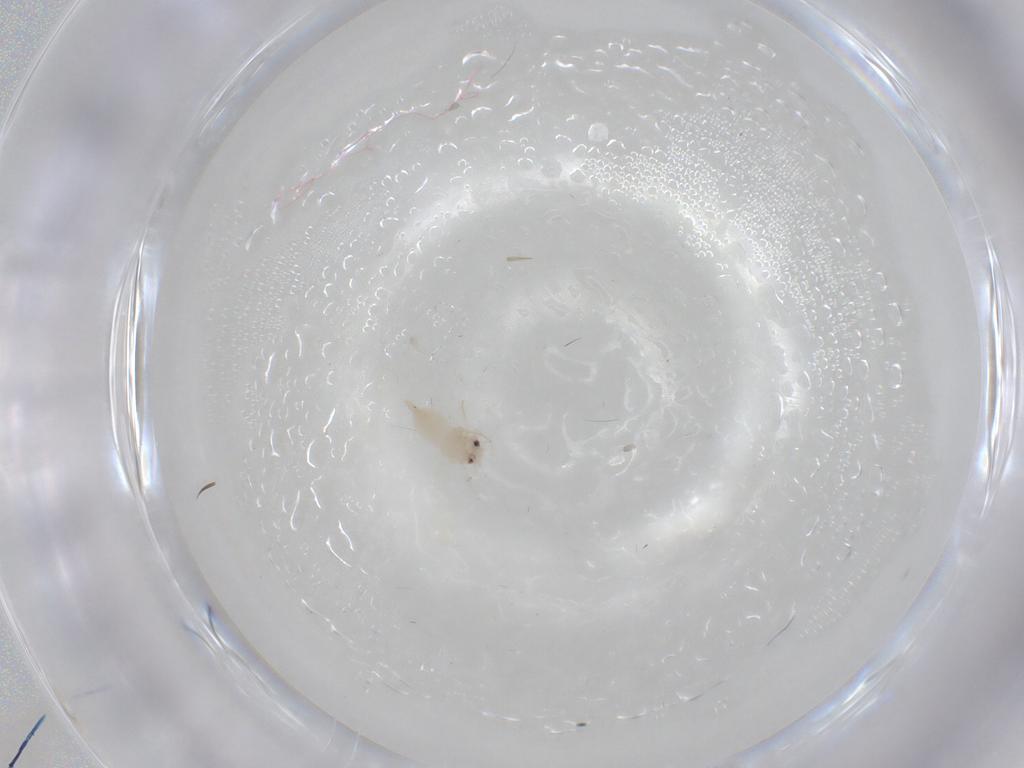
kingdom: Animalia
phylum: Arthropoda
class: Insecta
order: Hemiptera
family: Aleyrodidae
